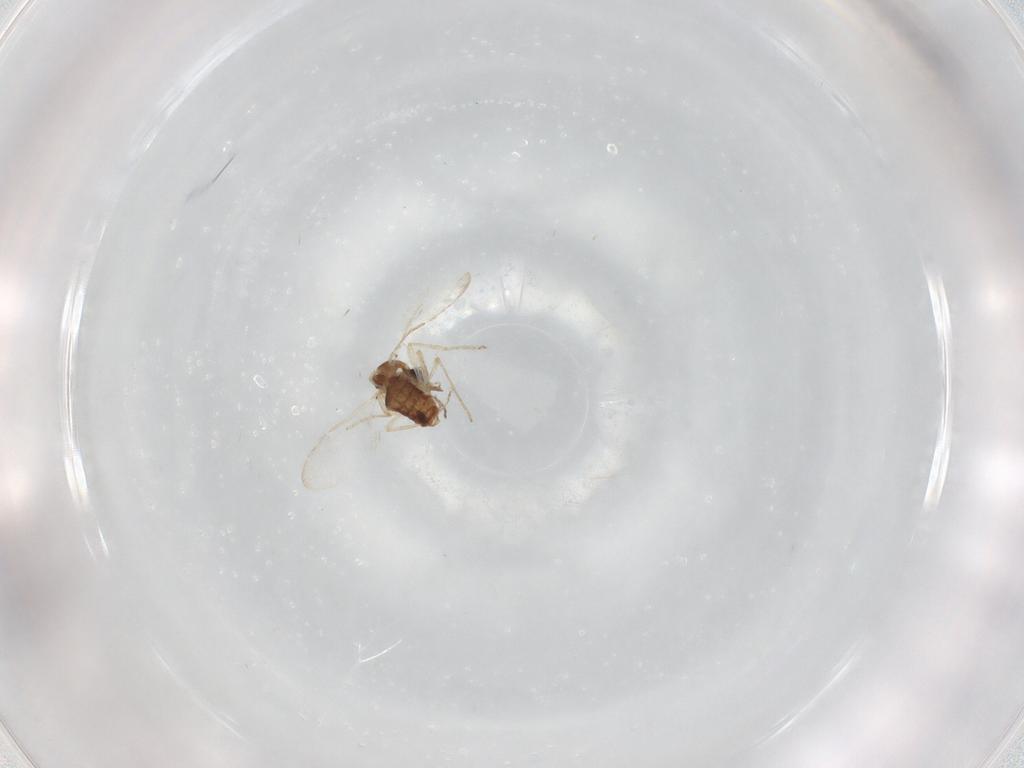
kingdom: Animalia
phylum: Arthropoda
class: Insecta
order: Diptera
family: Ceratopogonidae
